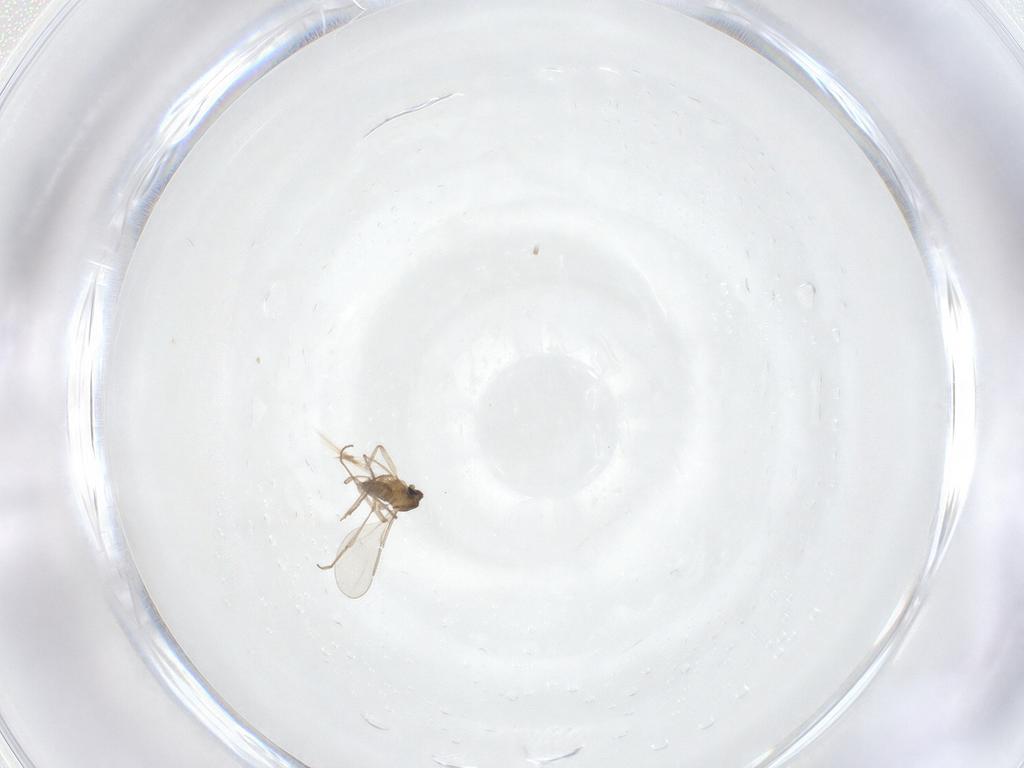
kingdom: Animalia
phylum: Arthropoda
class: Insecta
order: Diptera
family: Cecidomyiidae
